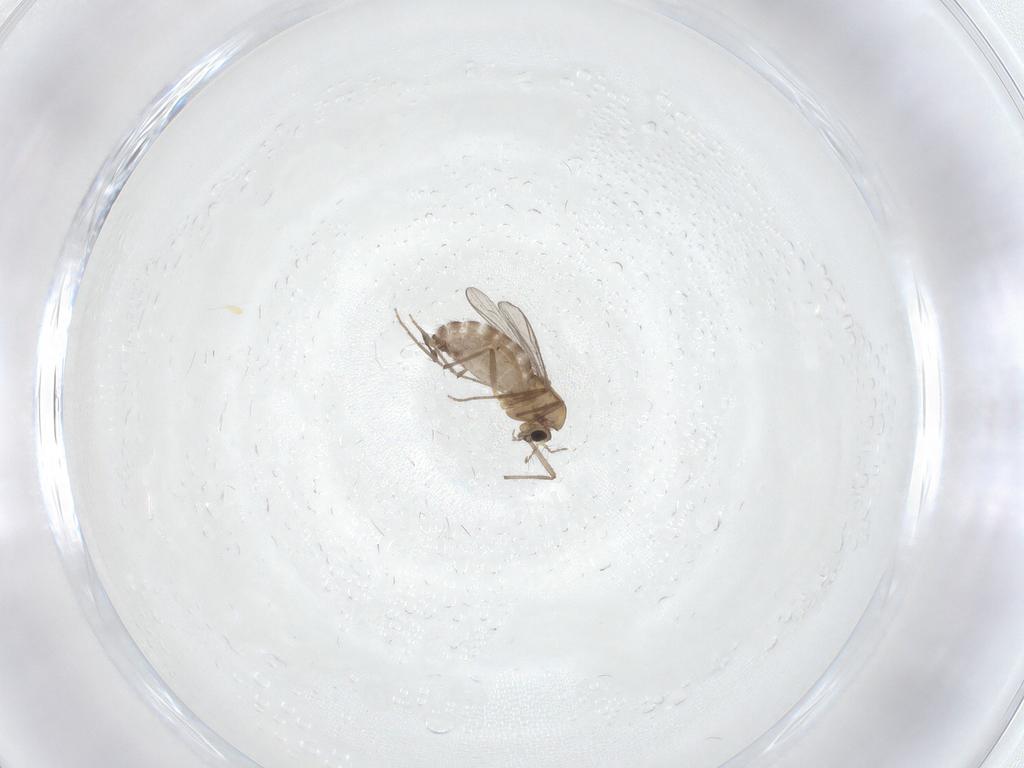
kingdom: Animalia
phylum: Arthropoda
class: Insecta
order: Diptera
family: Chironomidae
